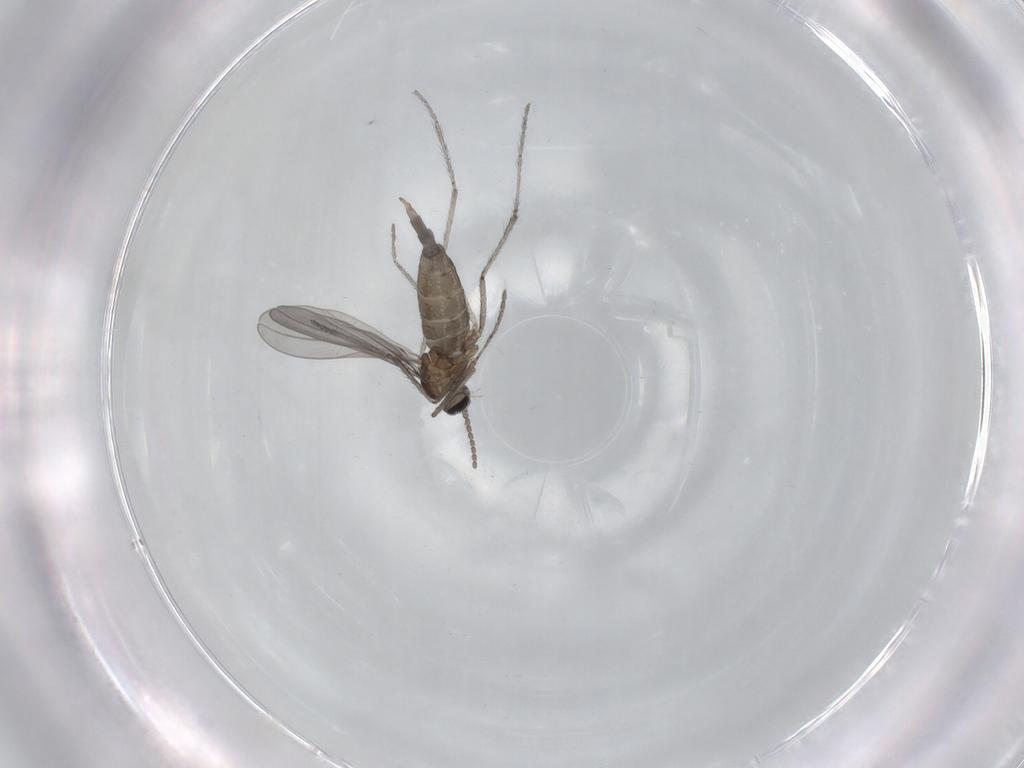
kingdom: Animalia
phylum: Arthropoda
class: Insecta
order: Diptera
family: Cecidomyiidae
